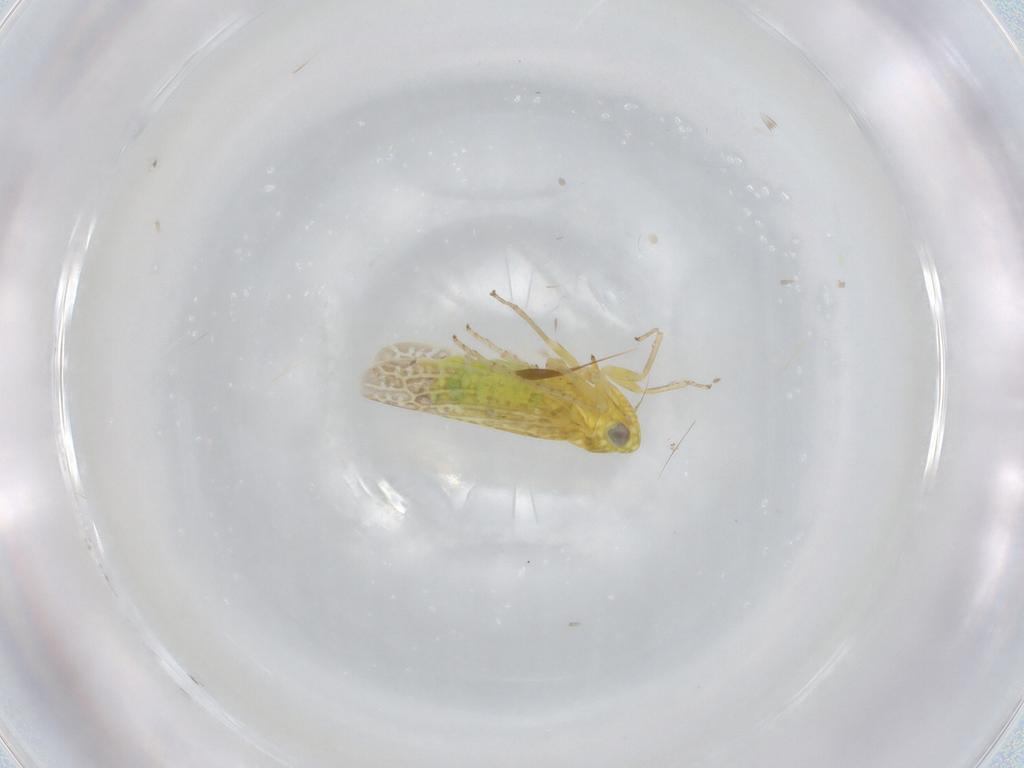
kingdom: Animalia
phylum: Arthropoda
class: Insecta
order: Hemiptera
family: Cicadellidae
